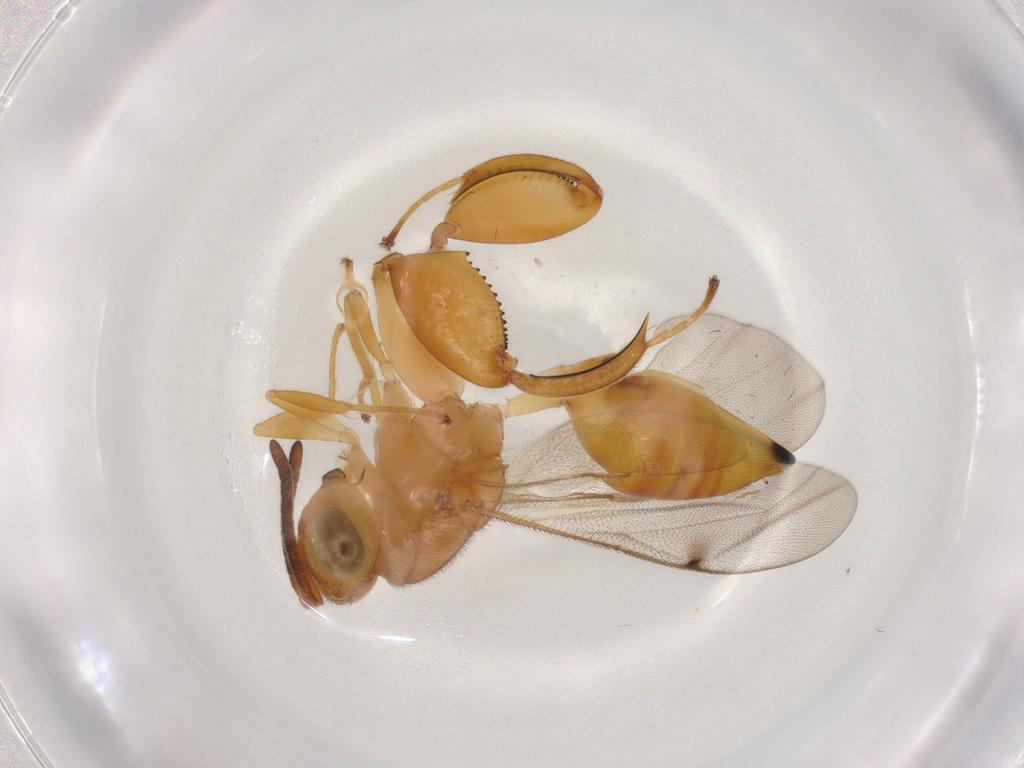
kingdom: Animalia
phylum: Arthropoda
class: Insecta
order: Hymenoptera
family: Chalcididae
